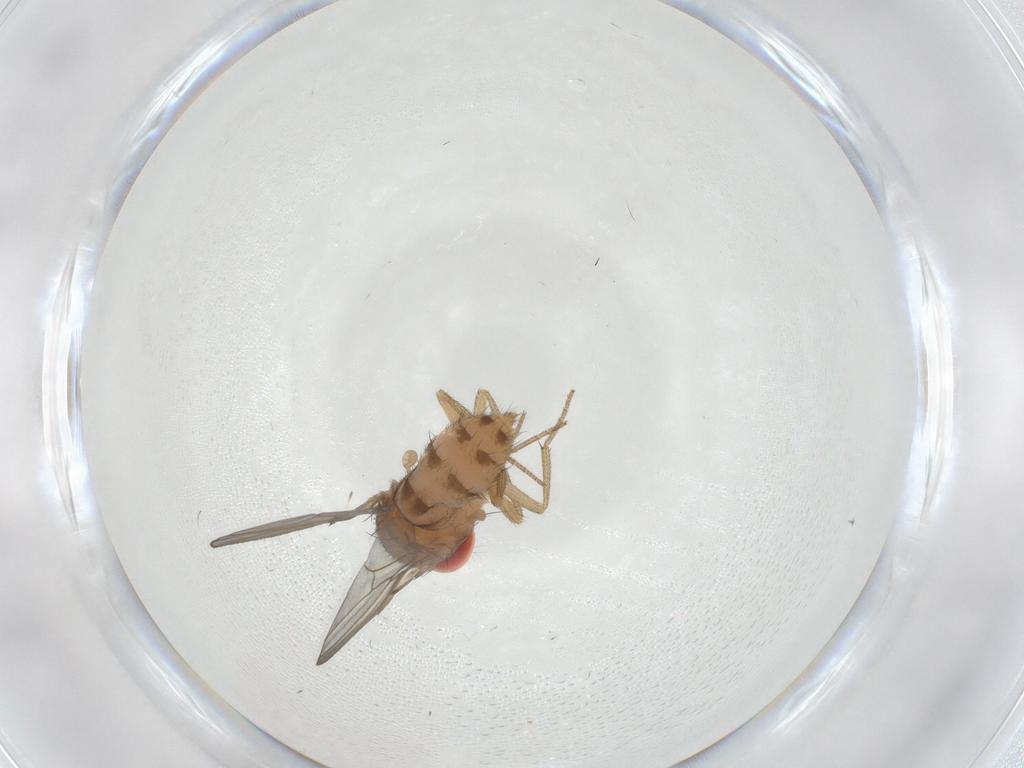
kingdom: Animalia
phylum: Arthropoda
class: Insecta
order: Diptera
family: Drosophilidae
